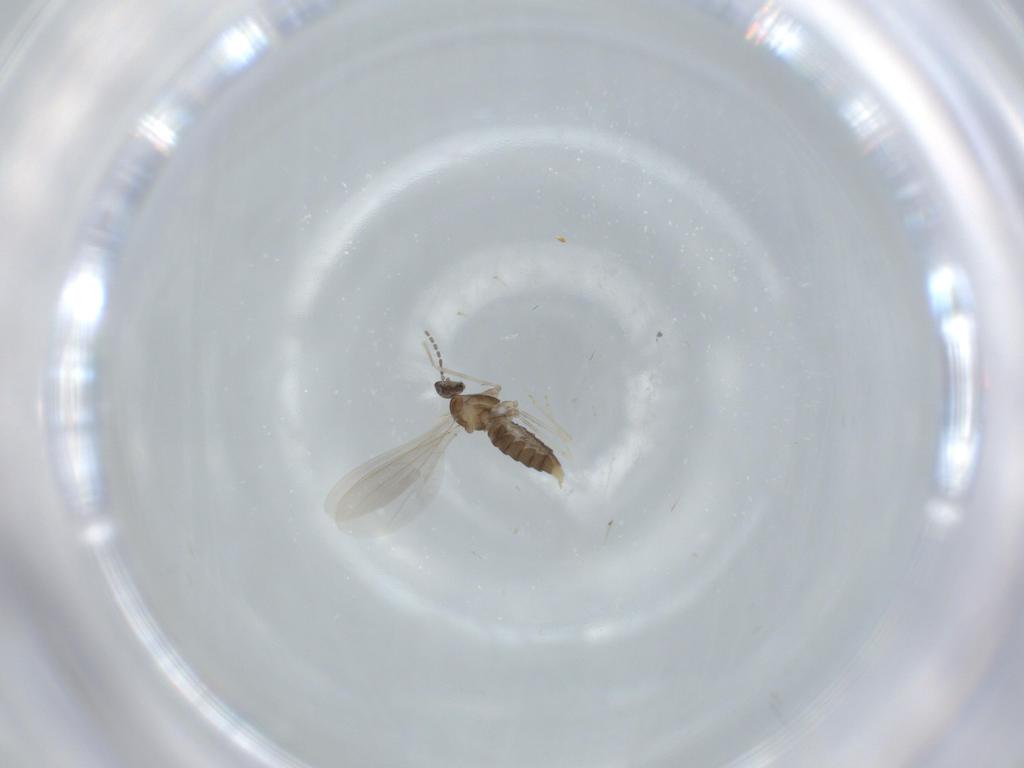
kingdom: Animalia
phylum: Arthropoda
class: Insecta
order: Diptera
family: Cecidomyiidae
